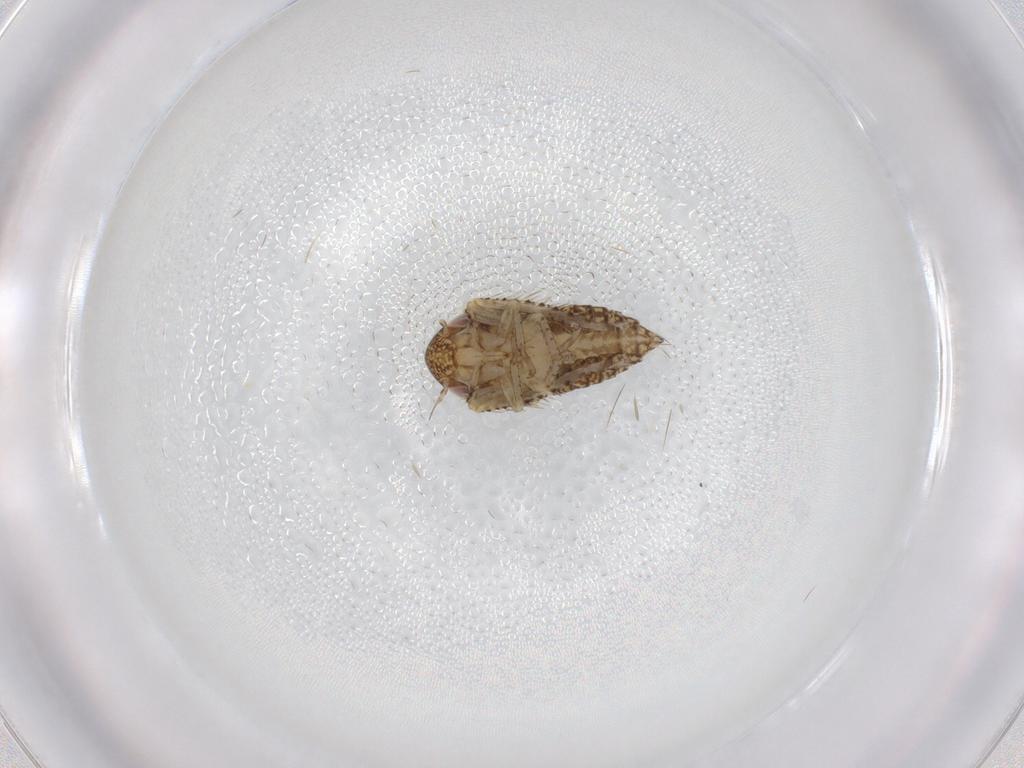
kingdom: Animalia
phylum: Arthropoda
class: Insecta
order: Hemiptera
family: Cicadellidae
